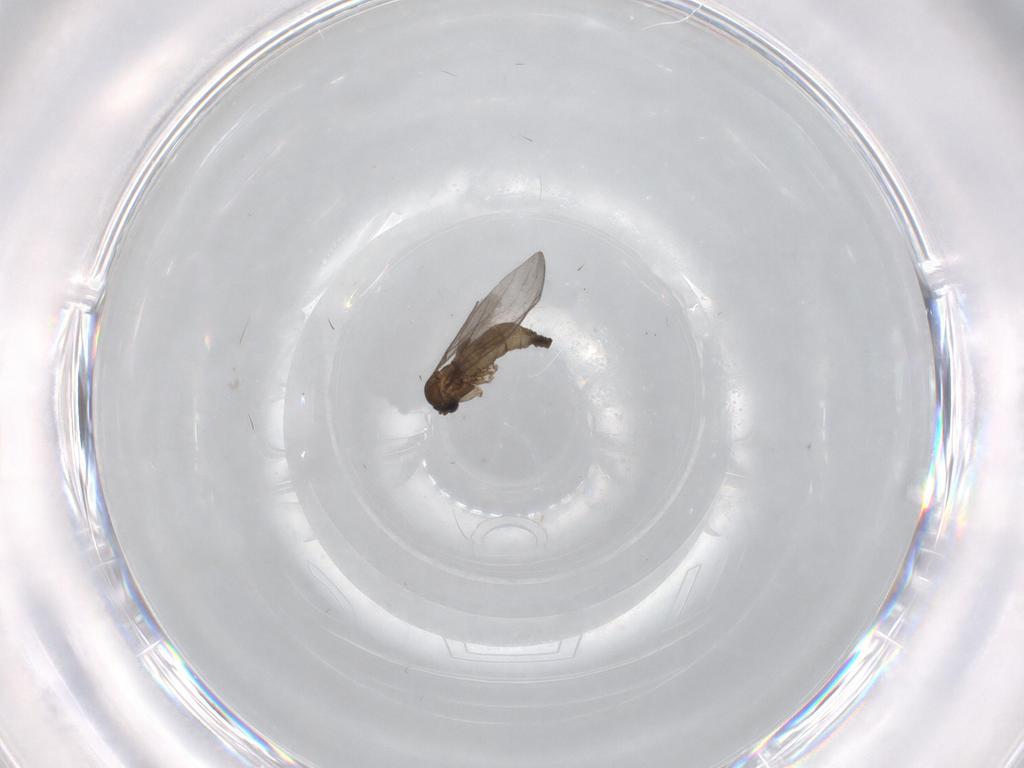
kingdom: Animalia
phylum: Arthropoda
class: Insecta
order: Diptera
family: Sciaridae
